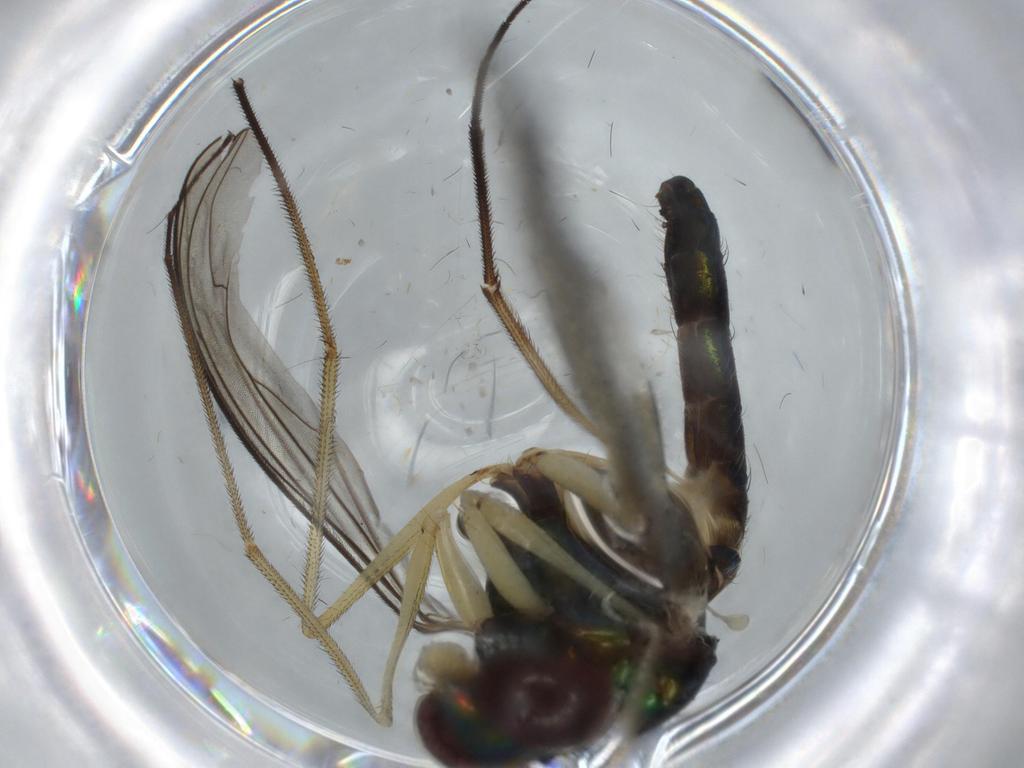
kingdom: Animalia
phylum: Arthropoda
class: Insecta
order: Diptera
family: Dolichopodidae
